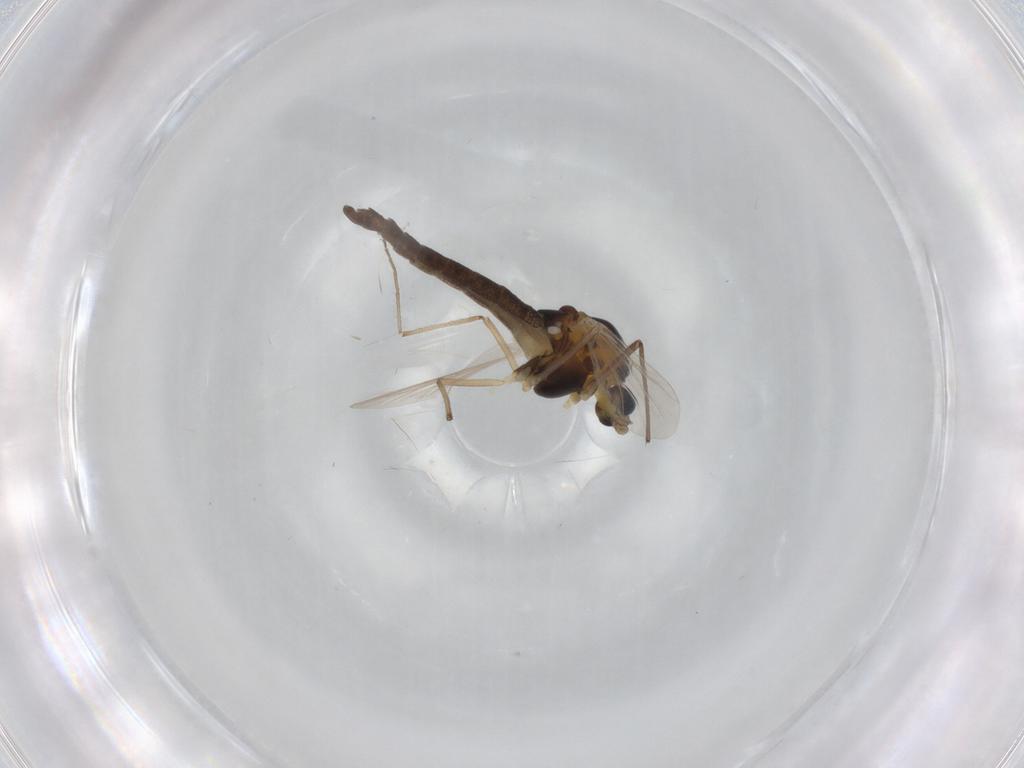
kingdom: Animalia
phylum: Arthropoda
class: Insecta
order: Diptera
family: Chironomidae
